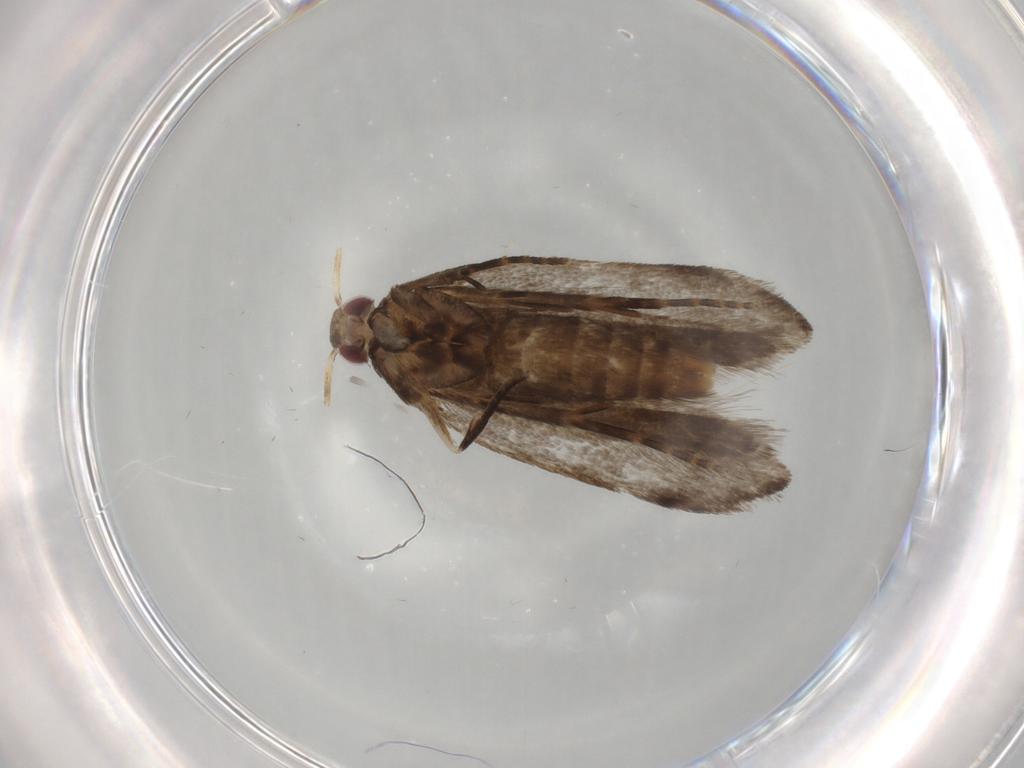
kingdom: Animalia
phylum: Arthropoda
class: Insecta
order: Lepidoptera
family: Gelechiidae
